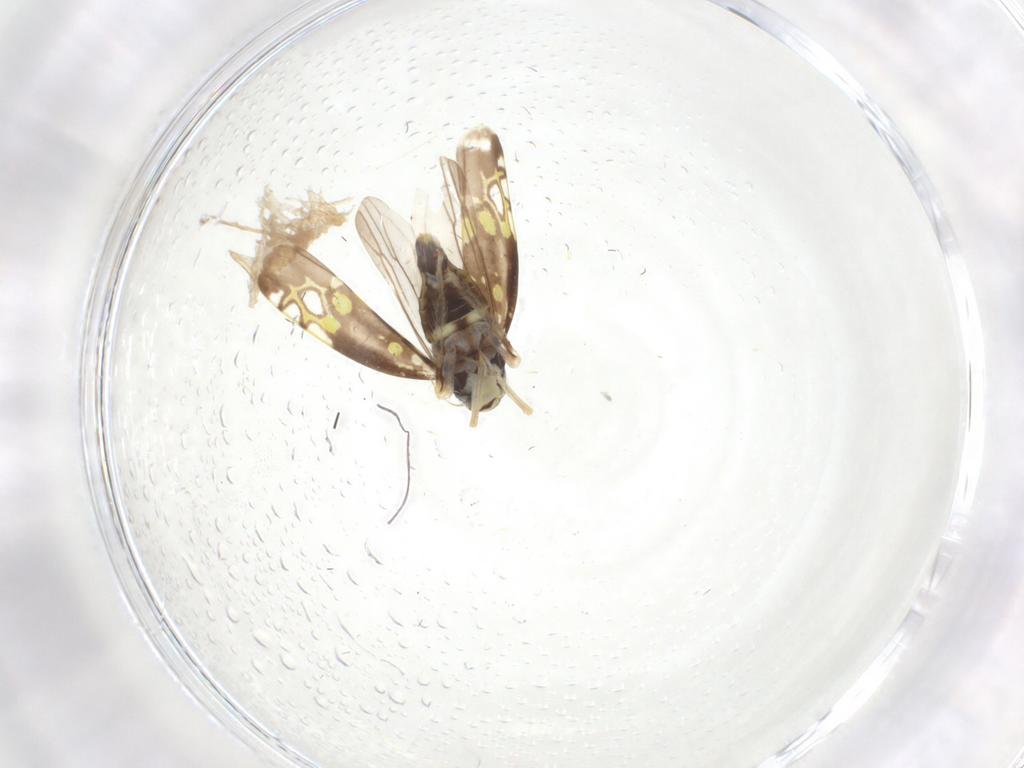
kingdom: Animalia
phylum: Arthropoda
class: Insecta
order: Hemiptera
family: Cicadellidae
